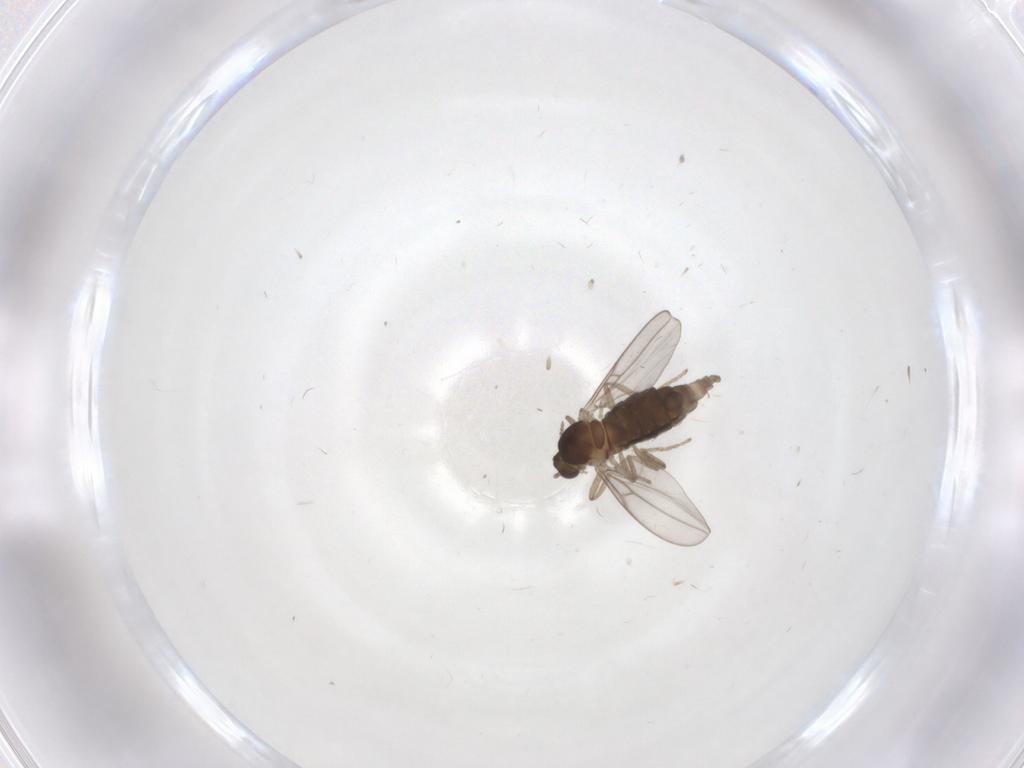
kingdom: Animalia
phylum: Arthropoda
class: Insecta
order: Diptera
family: Cecidomyiidae
